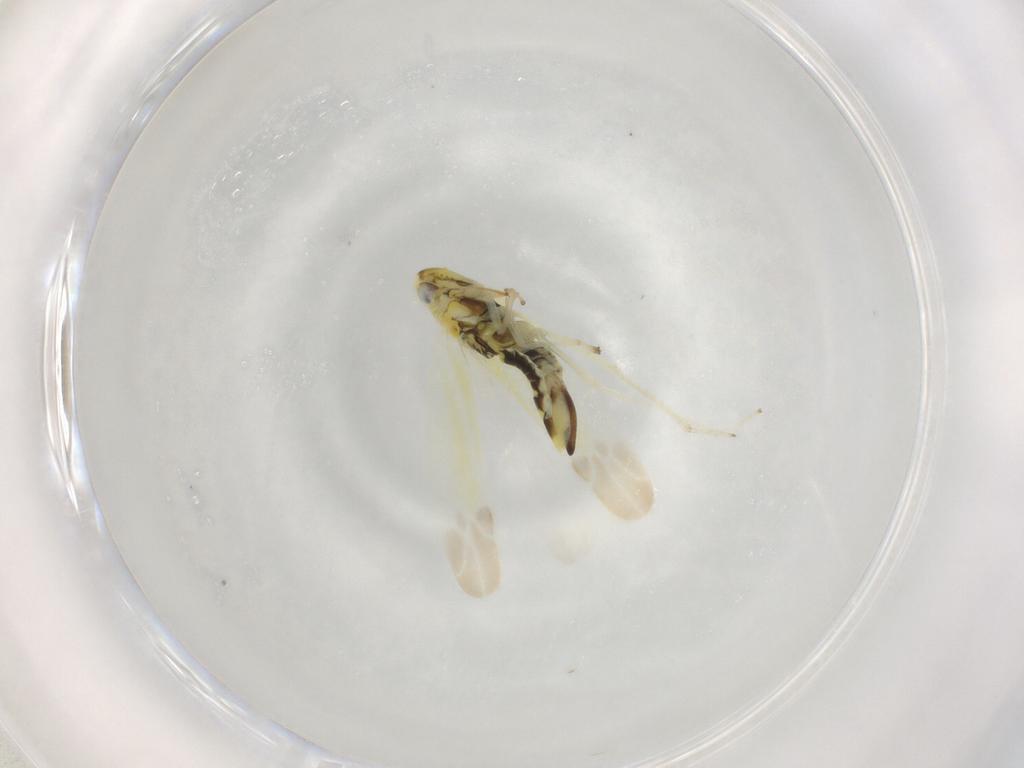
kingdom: Animalia
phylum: Arthropoda
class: Insecta
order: Hemiptera
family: Cicadellidae
